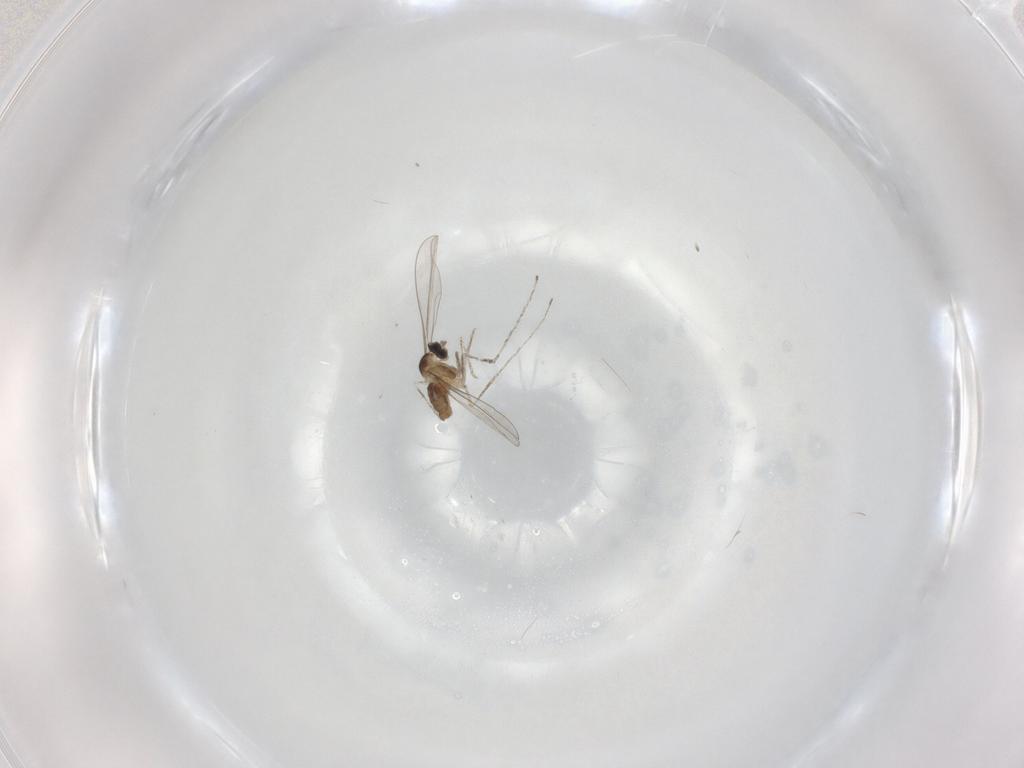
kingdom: Animalia
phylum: Arthropoda
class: Insecta
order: Diptera
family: Cecidomyiidae
